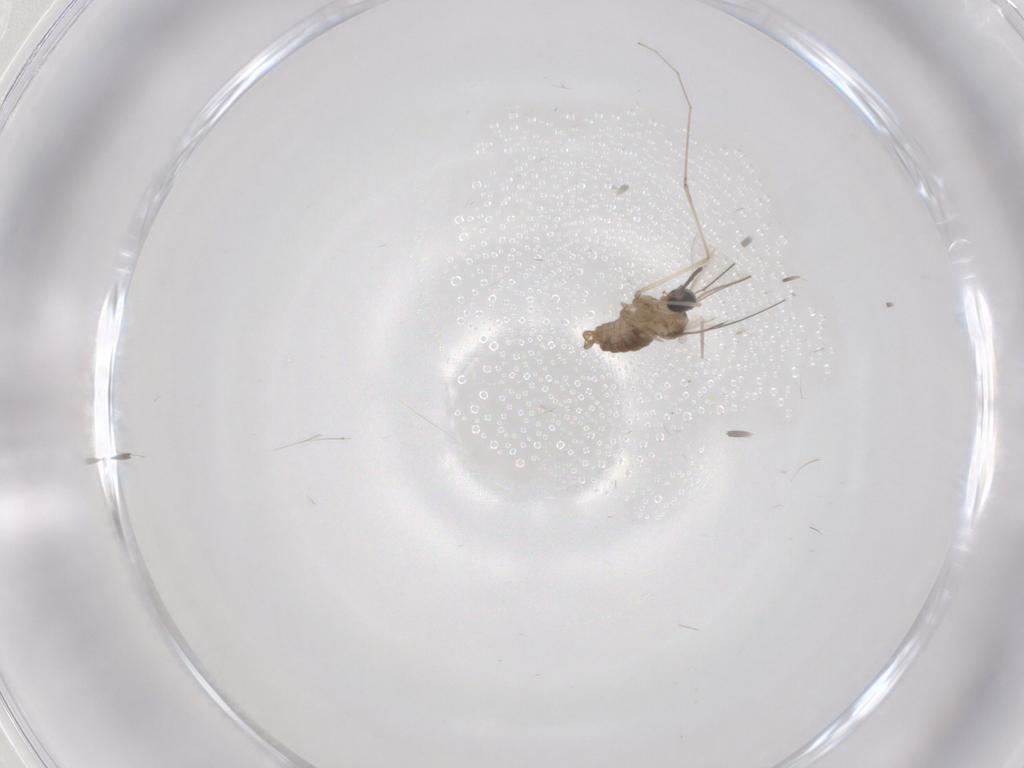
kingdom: Animalia
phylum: Arthropoda
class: Insecta
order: Diptera
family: Cecidomyiidae
